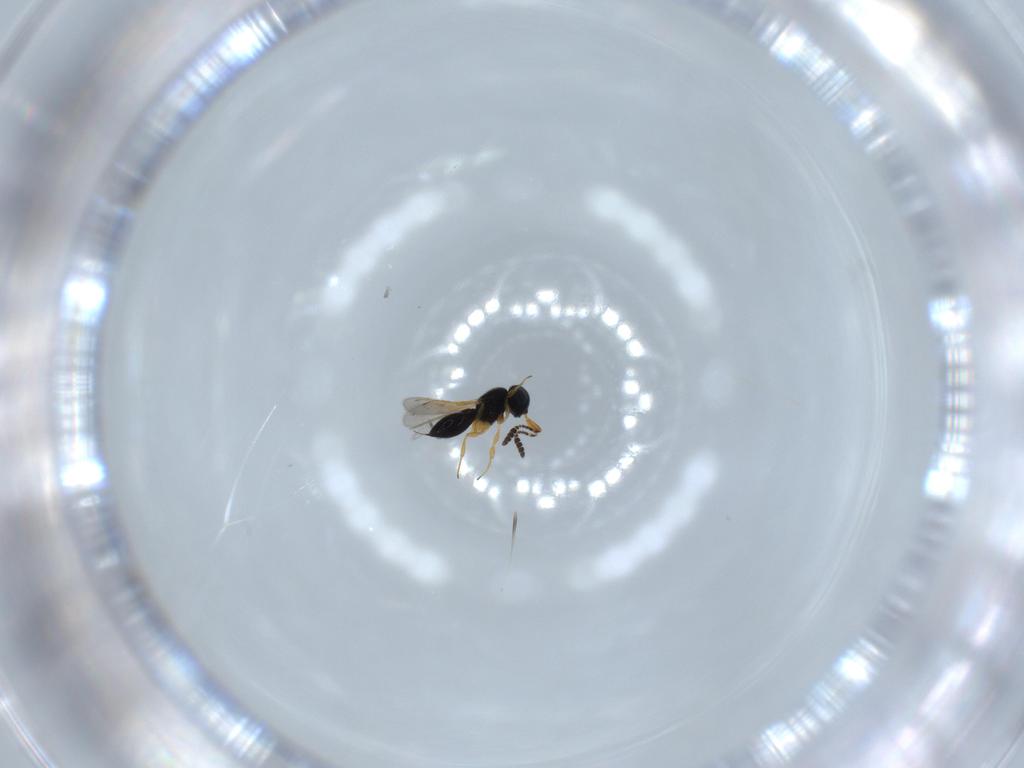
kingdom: Animalia
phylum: Arthropoda
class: Insecta
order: Hymenoptera
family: Scelionidae
